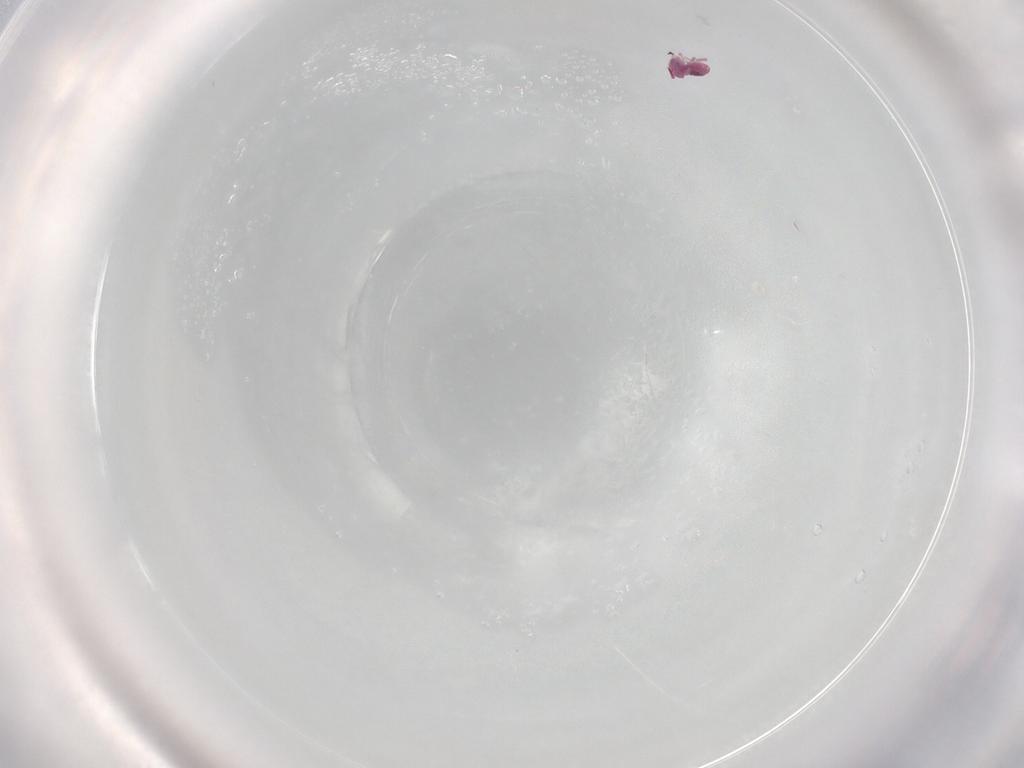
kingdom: Animalia
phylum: Arthropoda
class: Collembola
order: Symphypleona
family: Sminthurididae
